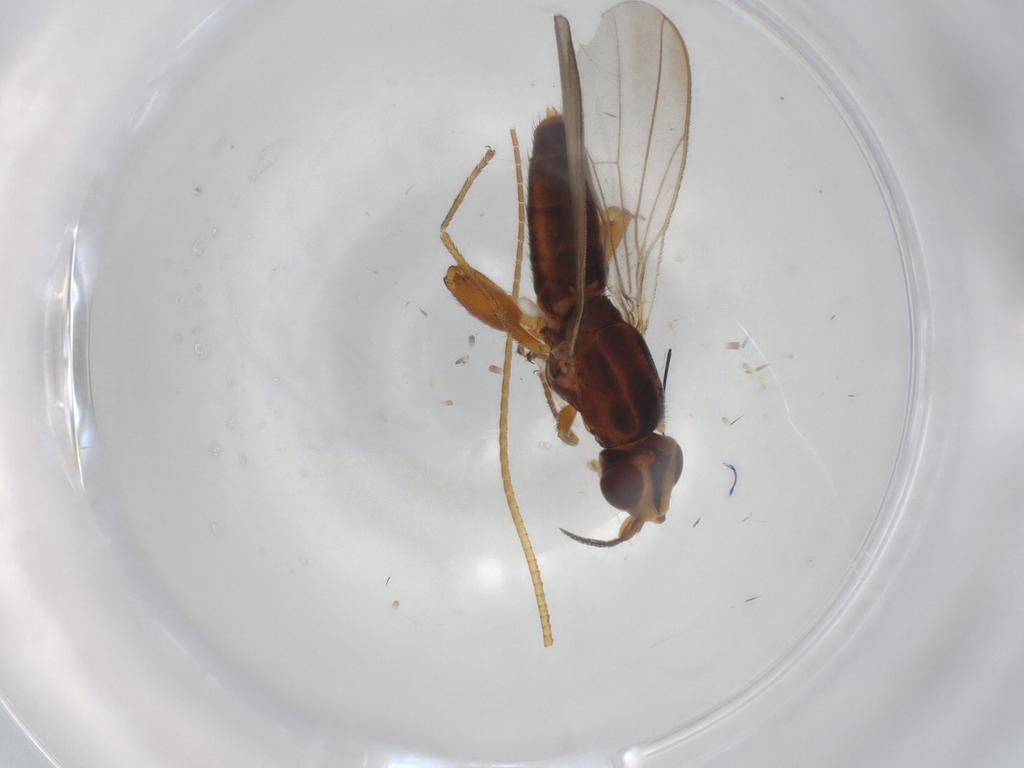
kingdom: Animalia
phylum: Arthropoda
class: Insecta
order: Diptera
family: Chloropidae
